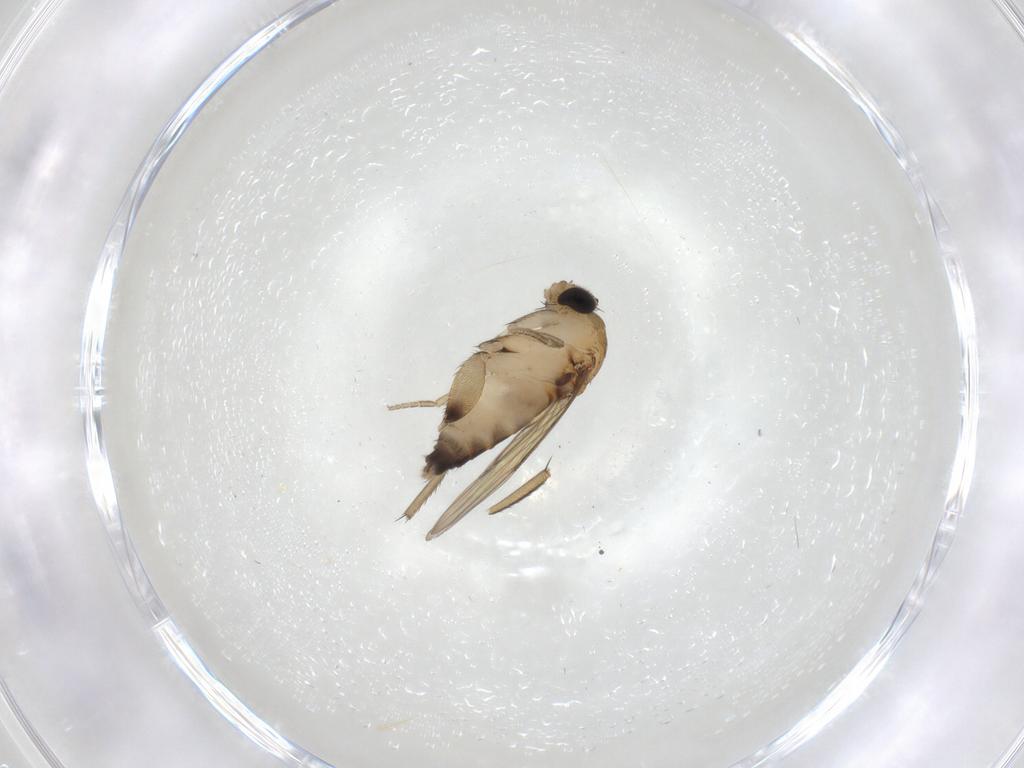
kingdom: Animalia
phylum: Arthropoda
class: Insecta
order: Diptera
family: Phoridae
